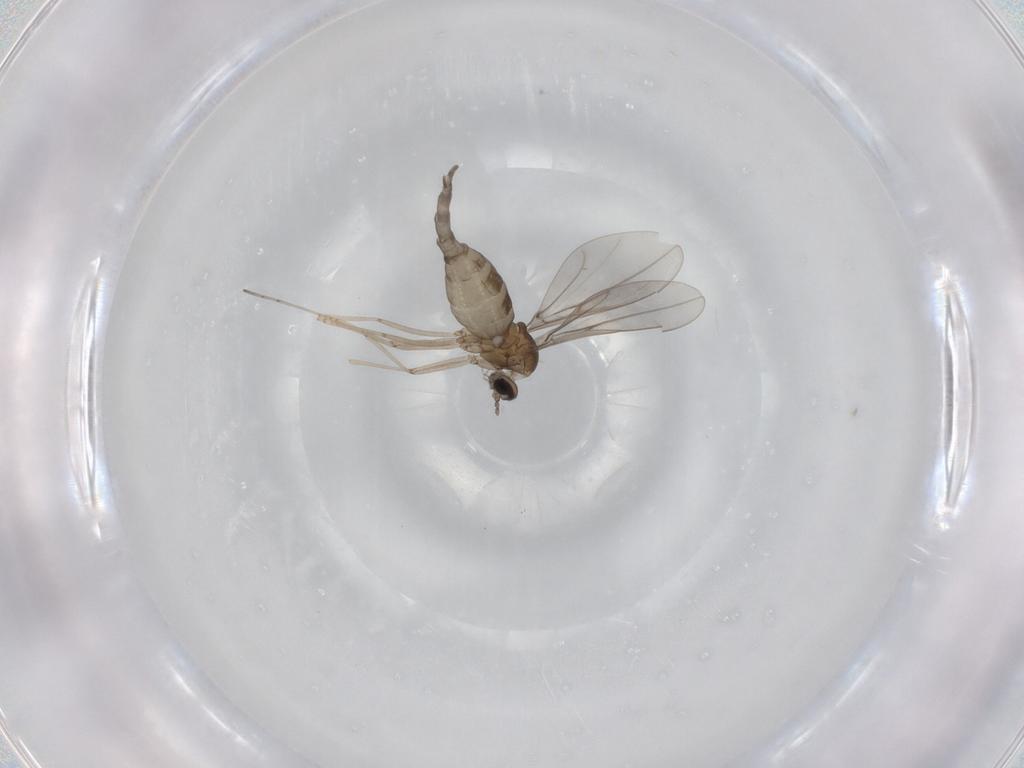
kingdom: Animalia
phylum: Arthropoda
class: Insecta
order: Diptera
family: Cecidomyiidae
